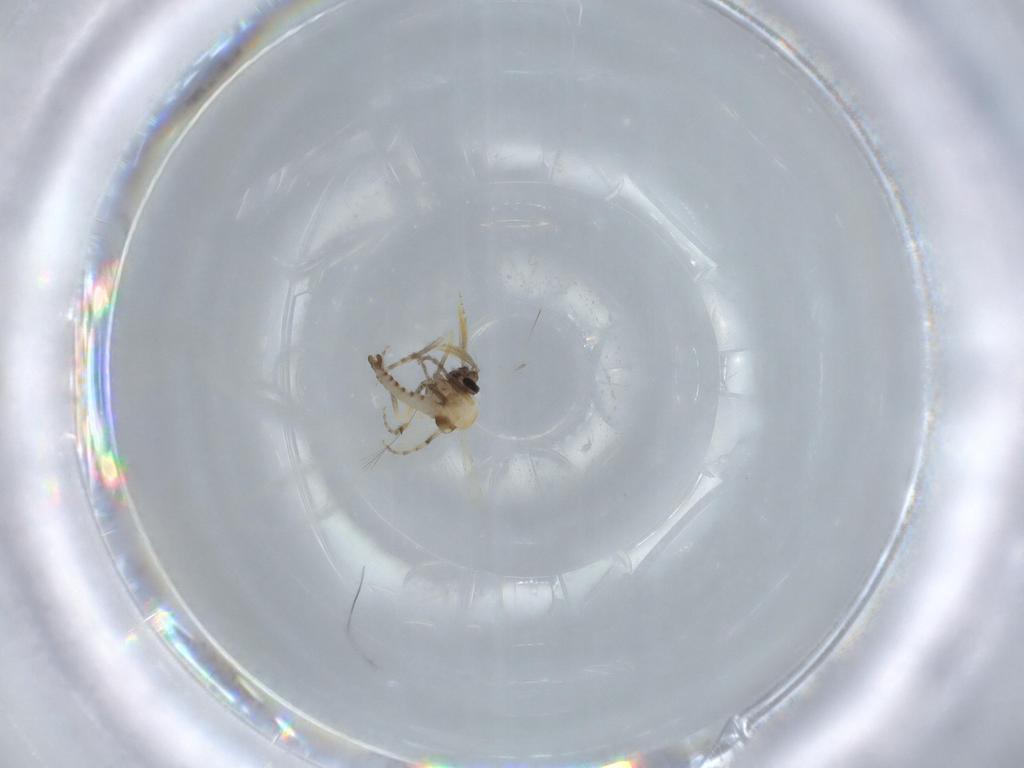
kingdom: Animalia
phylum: Arthropoda
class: Insecta
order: Diptera
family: Ceratopogonidae
